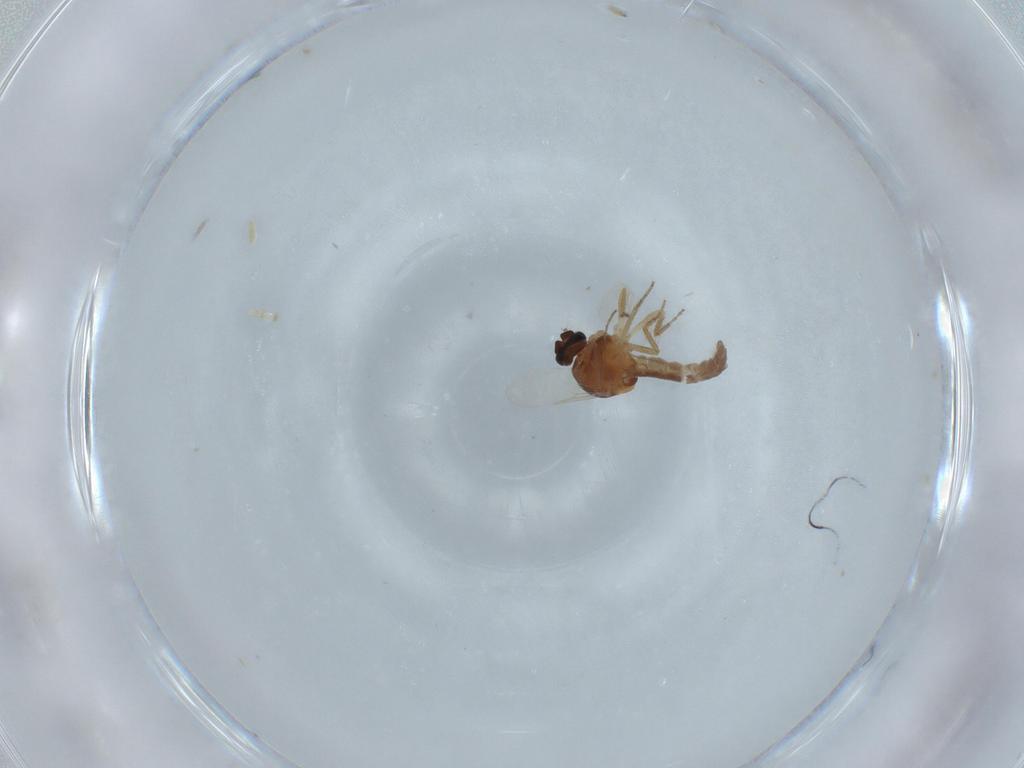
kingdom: Animalia
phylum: Arthropoda
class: Insecta
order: Diptera
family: Ceratopogonidae
